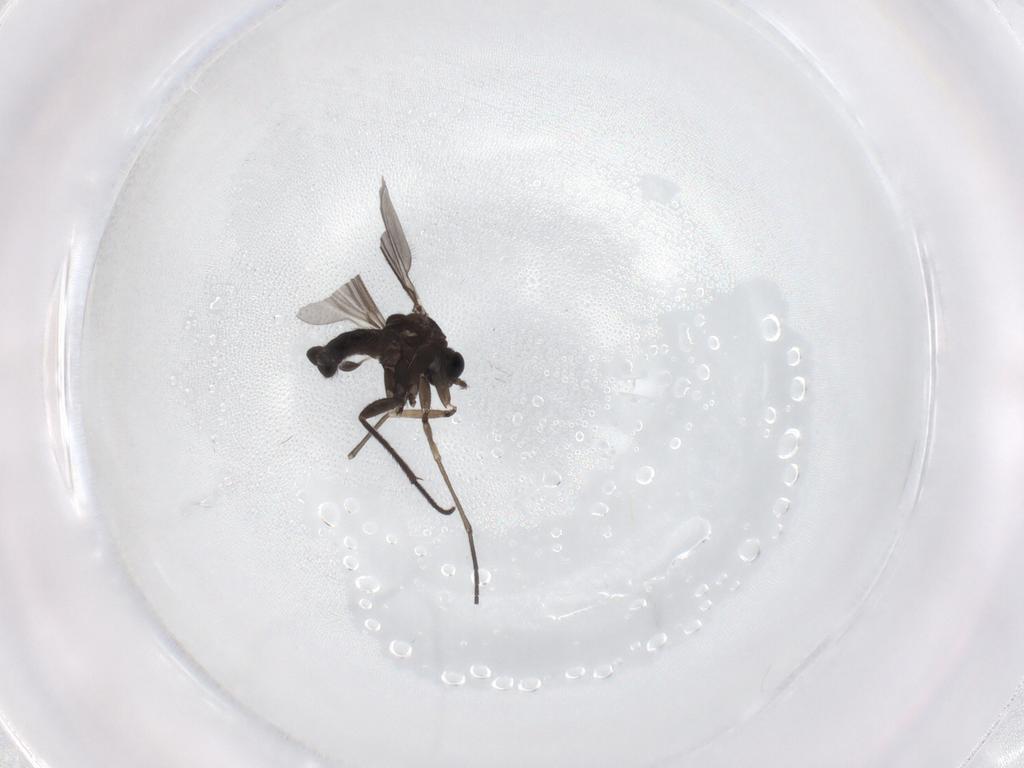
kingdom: Animalia
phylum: Arthropoda
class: Insecta
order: Diptera
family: Sciaridae
